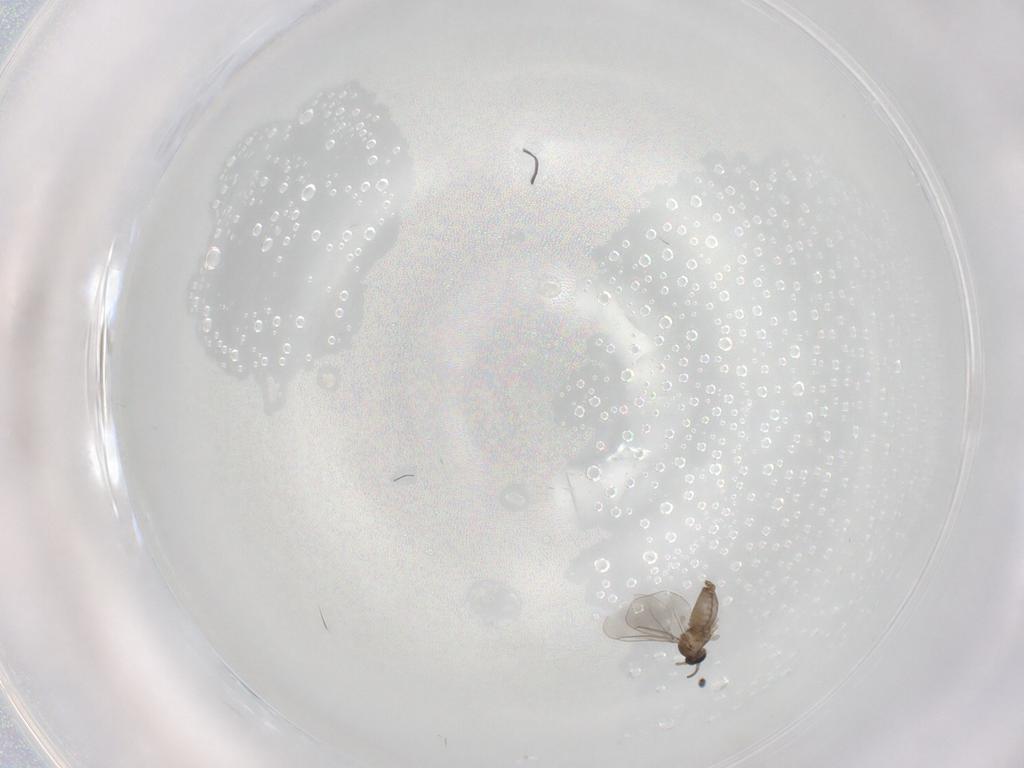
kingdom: Animalia
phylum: Arthropoda
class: Insecta
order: Diptera
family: Cecidomyiidae
